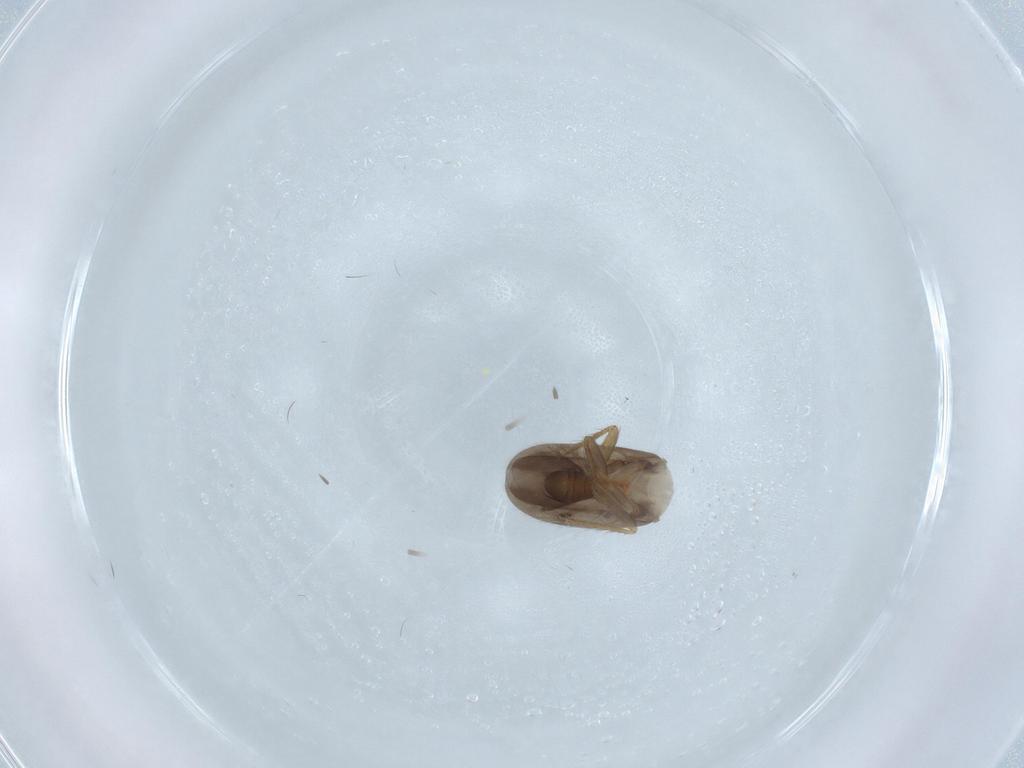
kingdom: Animalia
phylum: Arthropoda
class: Insecta
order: Hemiptera
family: Ceratocombidae
